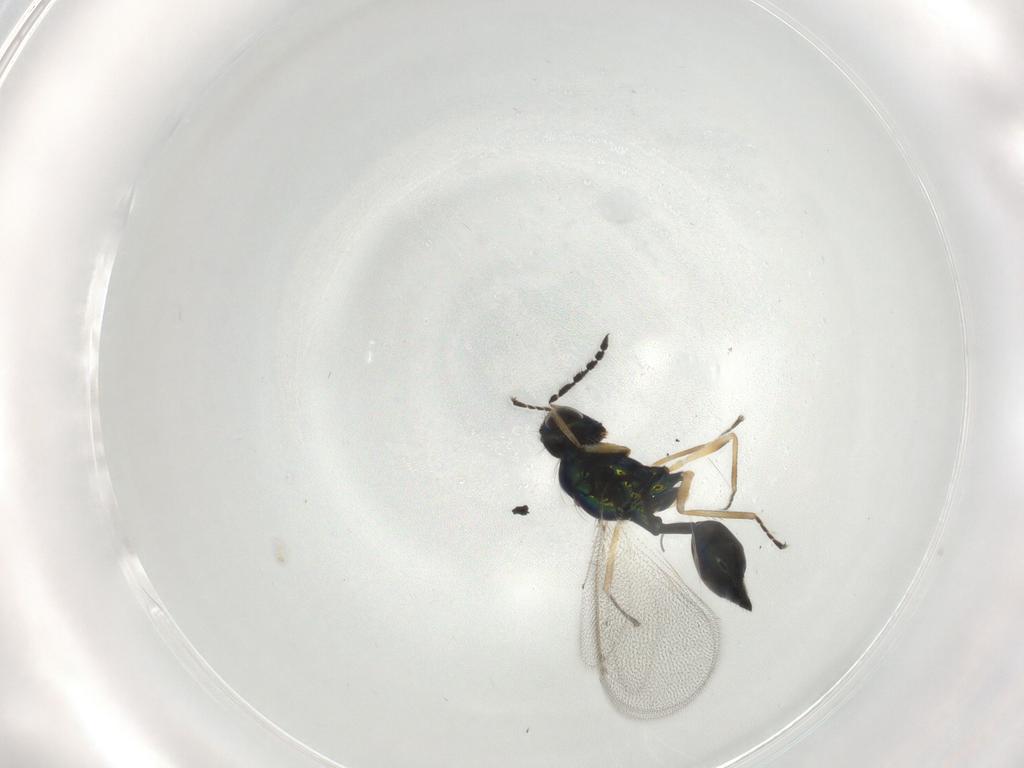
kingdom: Animalia
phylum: Arthropoda
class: Insecta
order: Hymenoptera
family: Eulophidae
